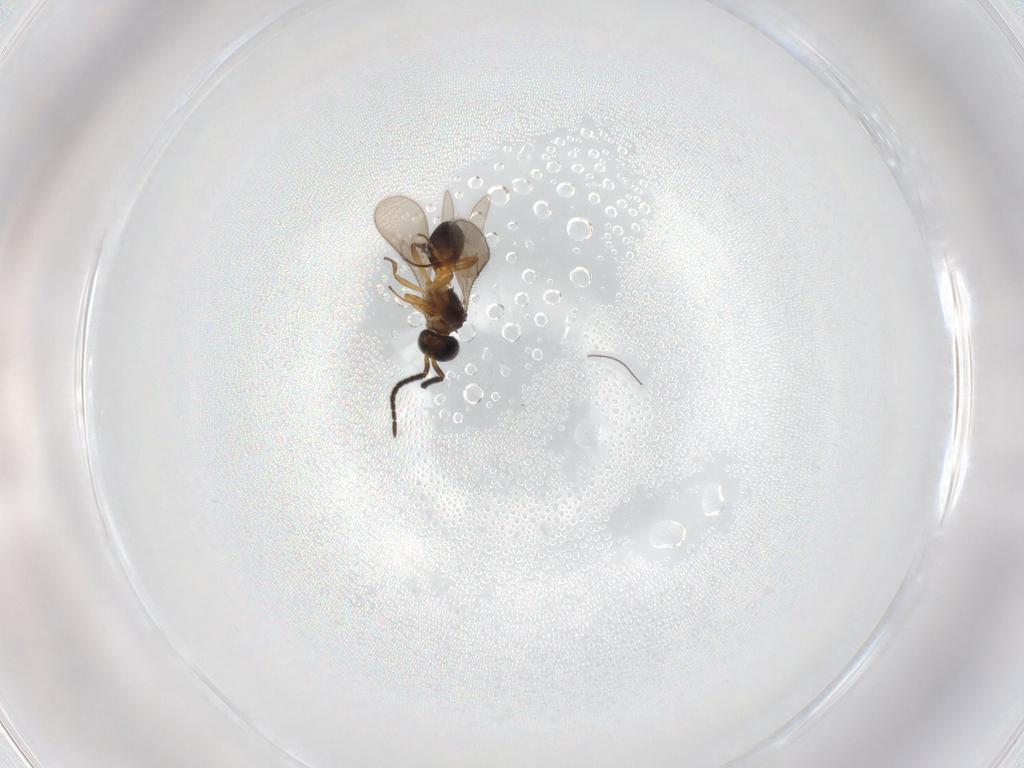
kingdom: Animalia
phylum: Arthropoda
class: Insecta
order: Hymenoptera
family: Scelionidae
